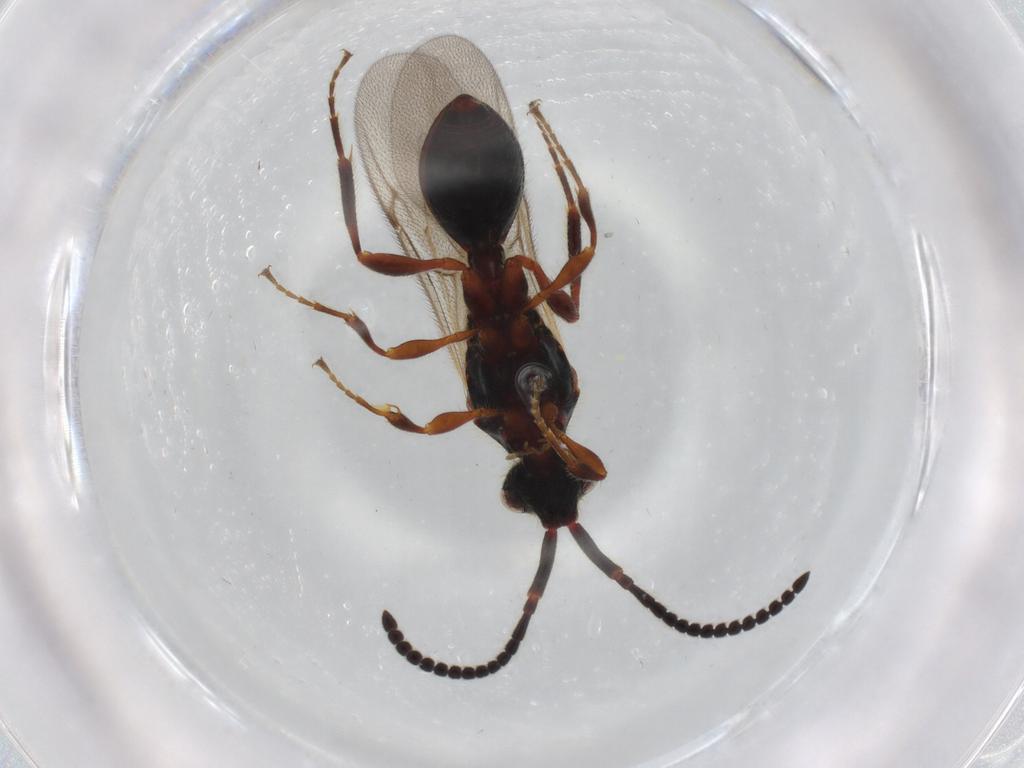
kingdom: Animalia
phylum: Arthropoda
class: Insecta
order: Hymenoptera
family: Diapriidae
